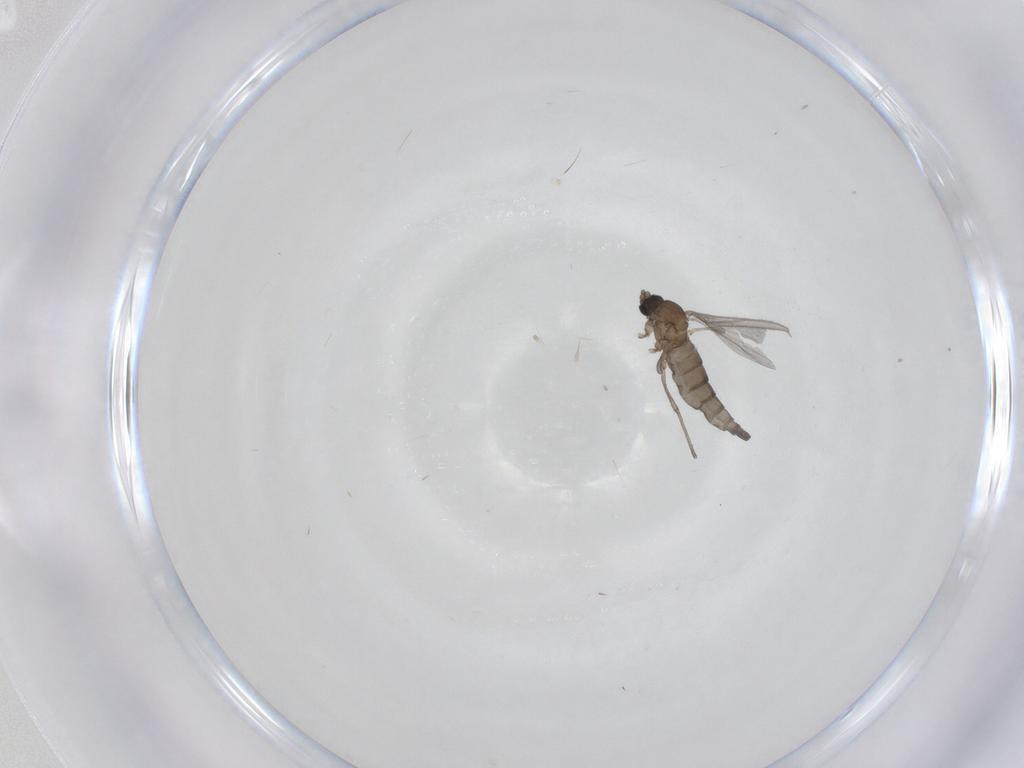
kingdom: Animalia
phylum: Arthropoda
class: Insecta
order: Diptera
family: Sciaridae
